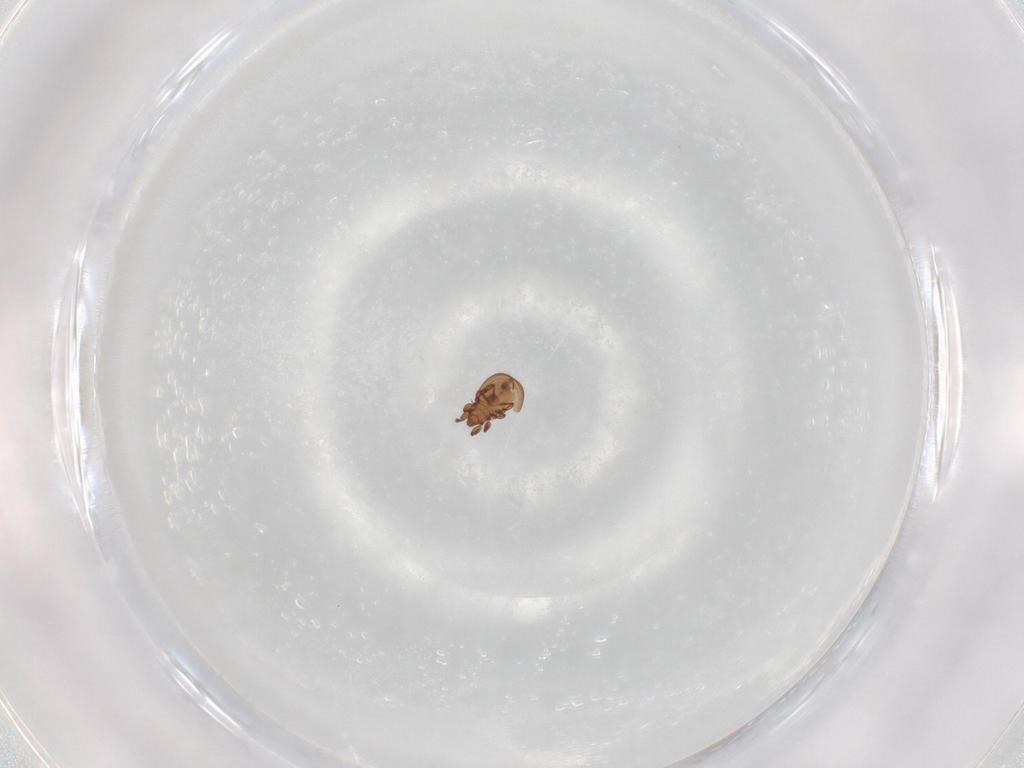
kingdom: Animalia
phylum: Arthropoda
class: Arachnida
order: Sarcoptiformes
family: Eremaeidae
